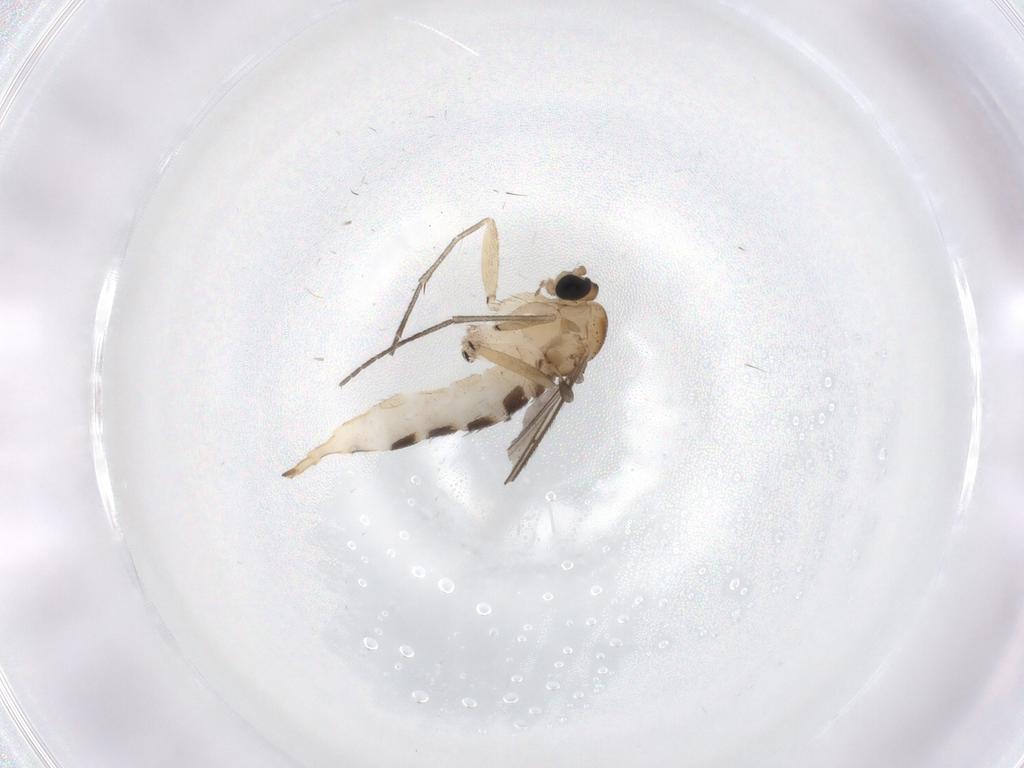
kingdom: Animalia
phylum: Arthropoda
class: Insecta
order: Diptera
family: Sciaridae
